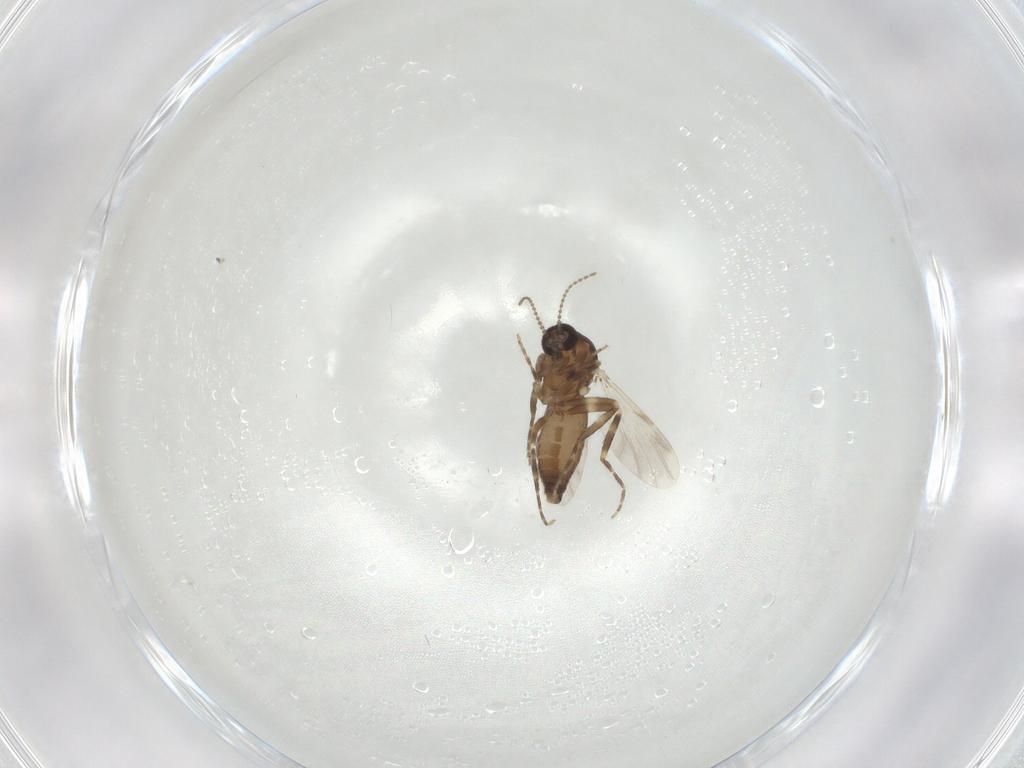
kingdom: Animalia
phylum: Arthropoda
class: Insecta
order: Diptera
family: Ceratopogonidae
